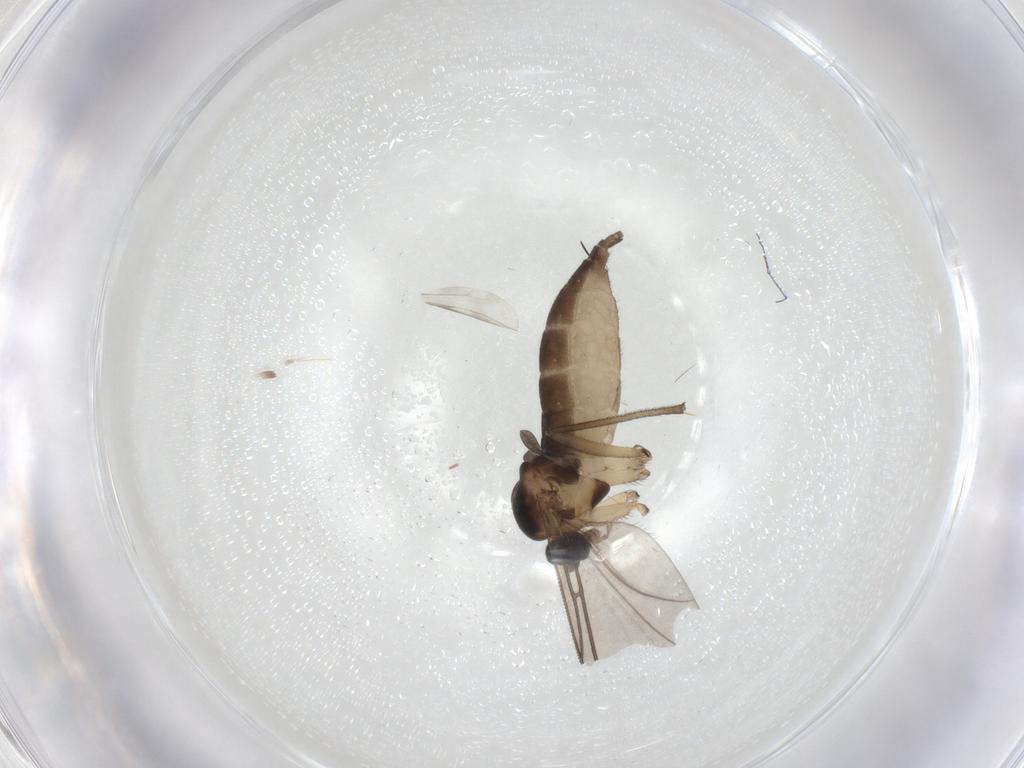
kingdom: Animalia
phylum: Arthropoda
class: Insecta
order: Diptera
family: Sciaridae
